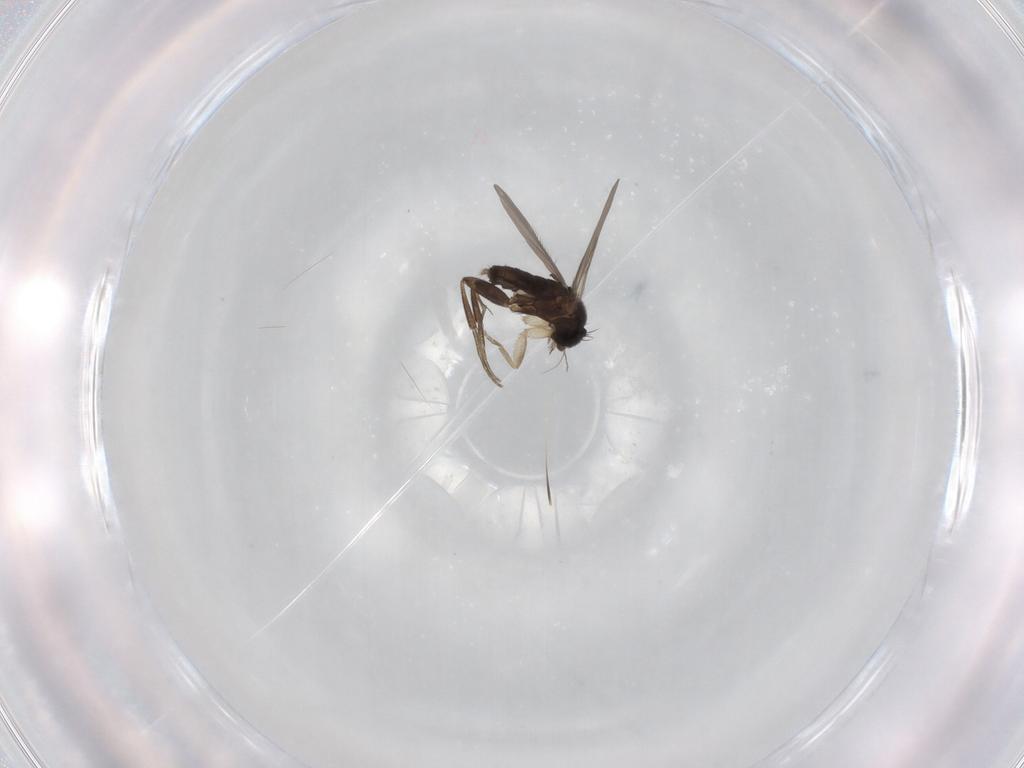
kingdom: Animalia
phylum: Arthropoda
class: Insecta
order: Diptera
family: Phoridae
